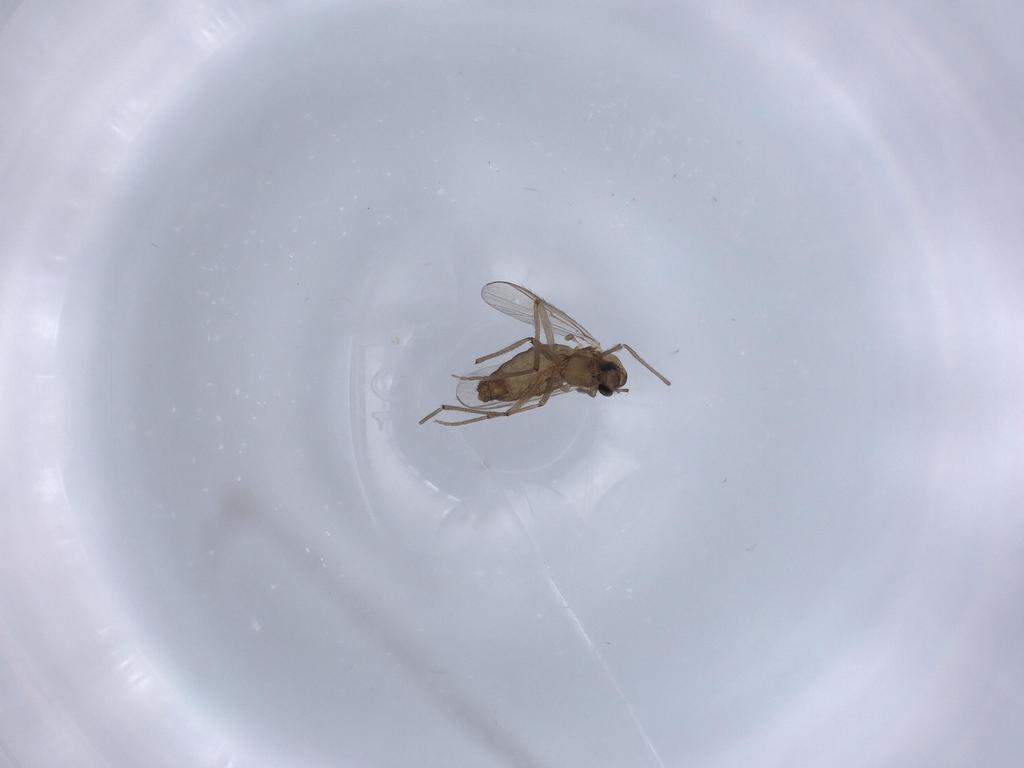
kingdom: Animalia
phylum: Arthropoda
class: Insecta
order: Diptera
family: Chironomidae
